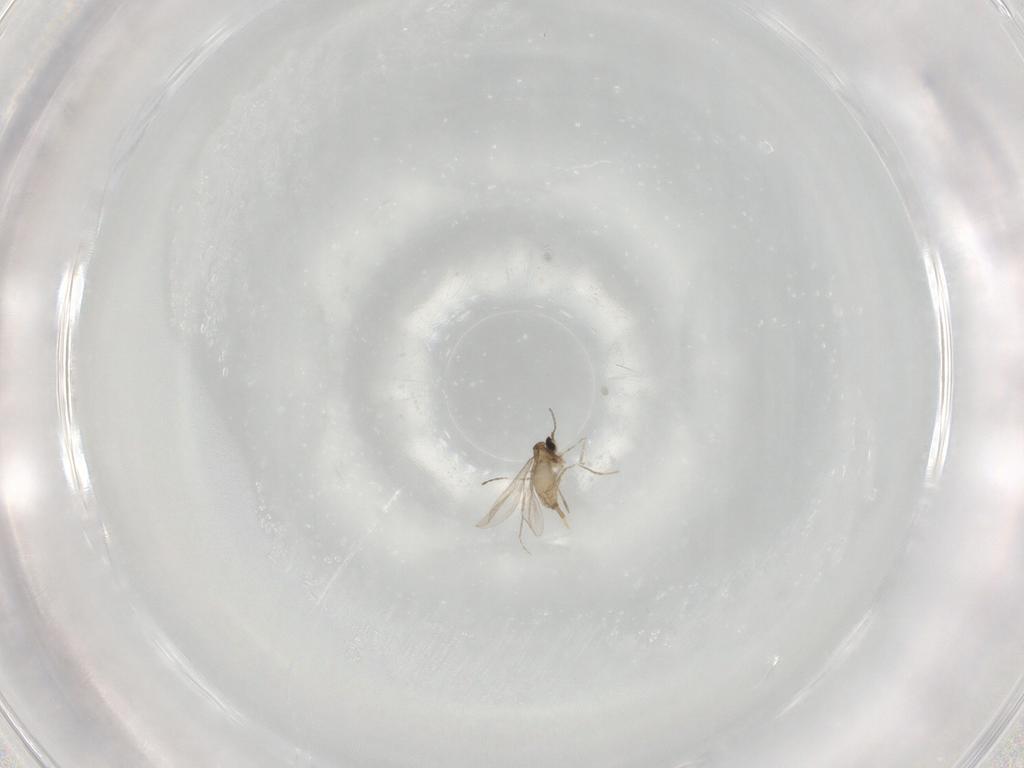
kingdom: Animalia
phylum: Arthropoda
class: Insecta
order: Diptera
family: Cecidomyiidae
